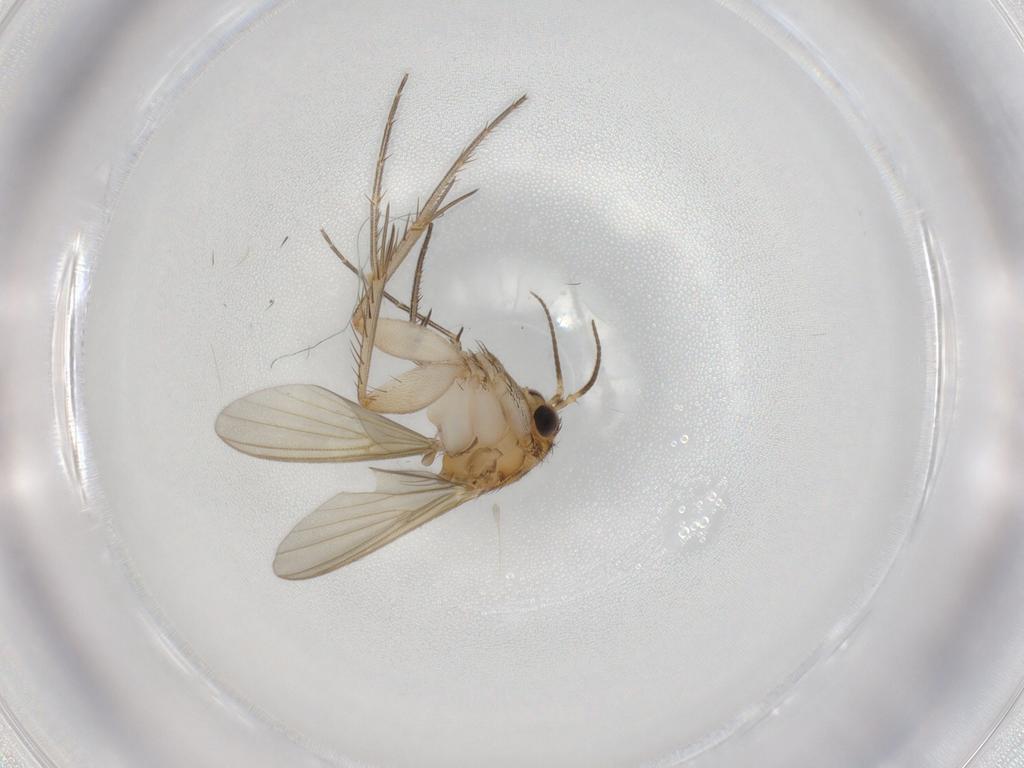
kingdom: Animalia
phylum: Arthropoda
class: Insecta
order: Diptera
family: Mycetophilidae
